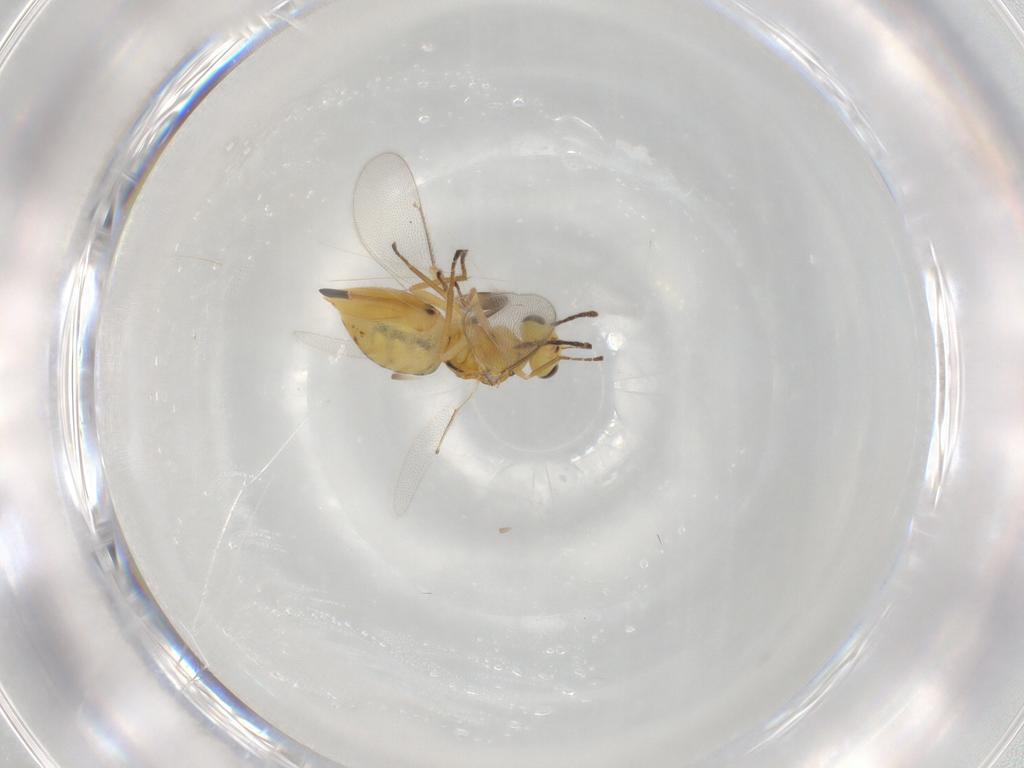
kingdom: Animalia
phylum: Arthropoda
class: Insecta
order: Hymenoptera
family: Eulophidae
